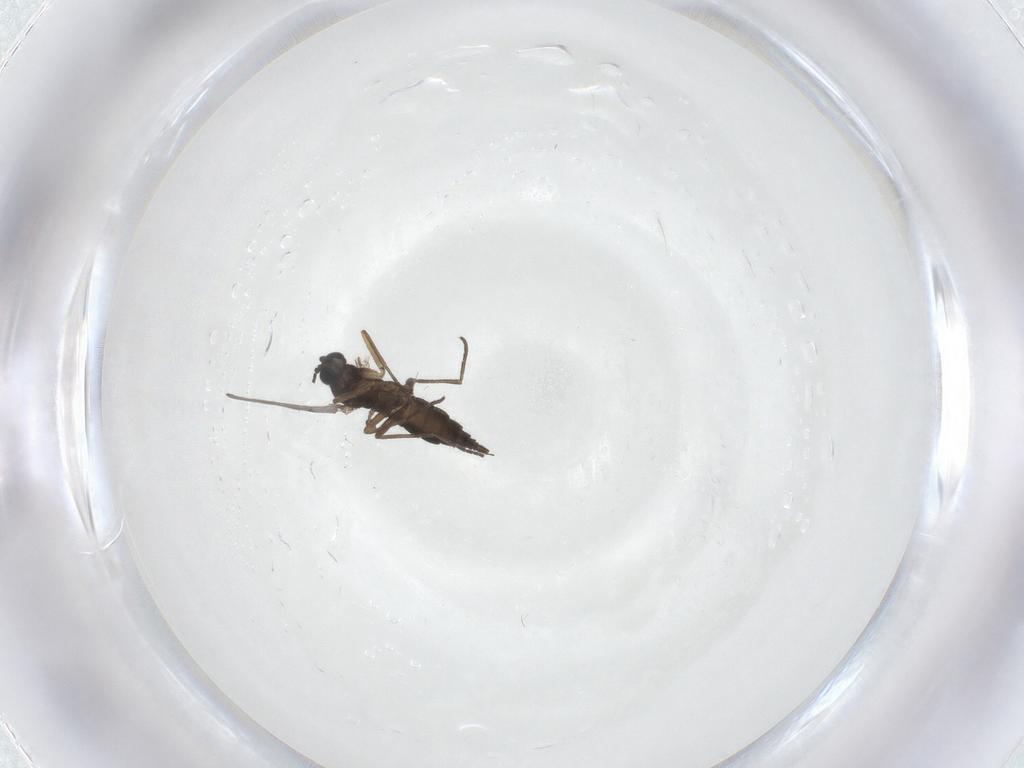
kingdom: Animalia
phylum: Arthropoda
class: Insecta
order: Diptera
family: Sciaridae
